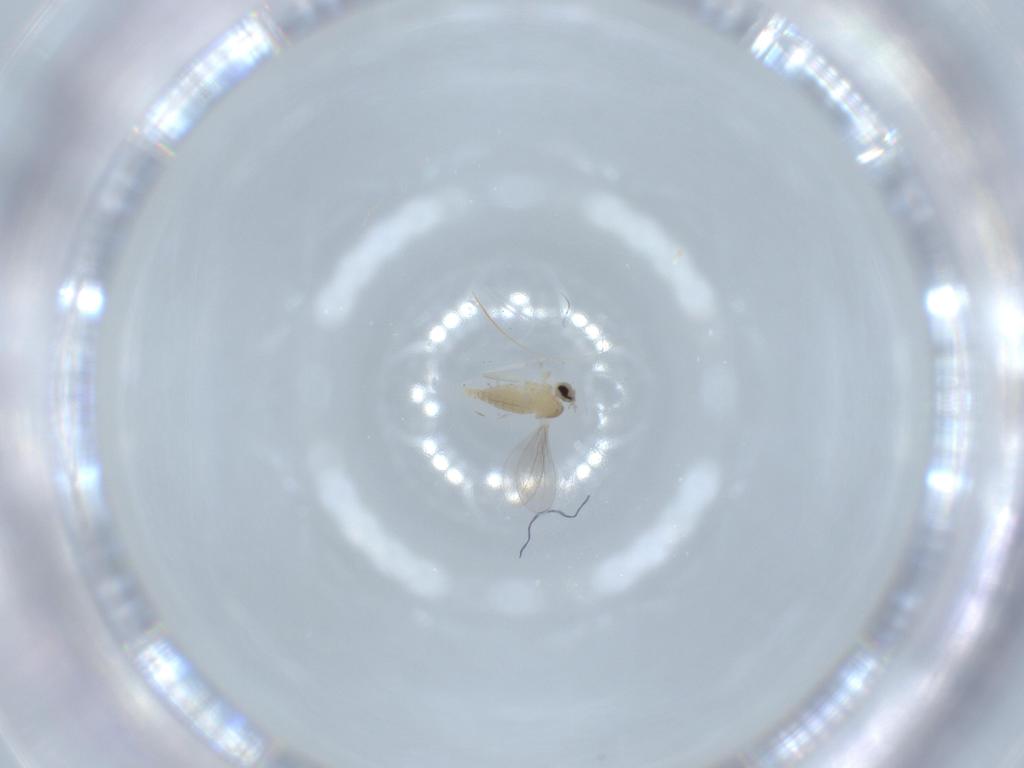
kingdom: Animalia
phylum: Arthropoda
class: Insecta
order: Diptera
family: Cecidomyiidae
